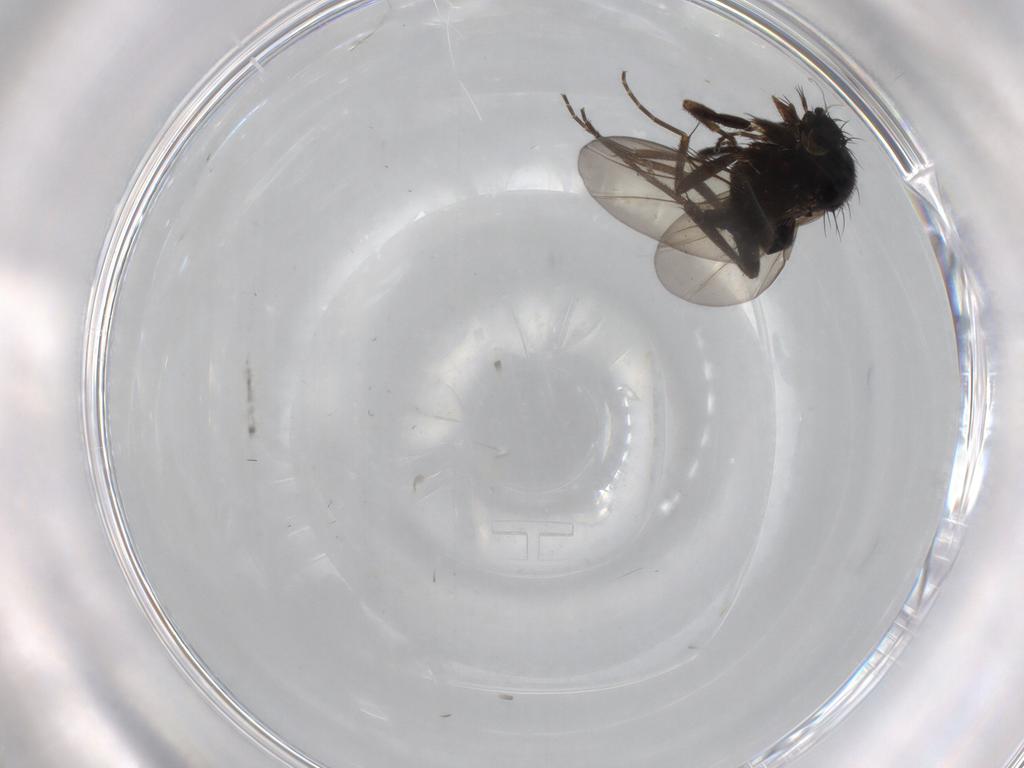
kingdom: Animalia
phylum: Arthropoda
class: Insecta
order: Diptera
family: Phoridae
